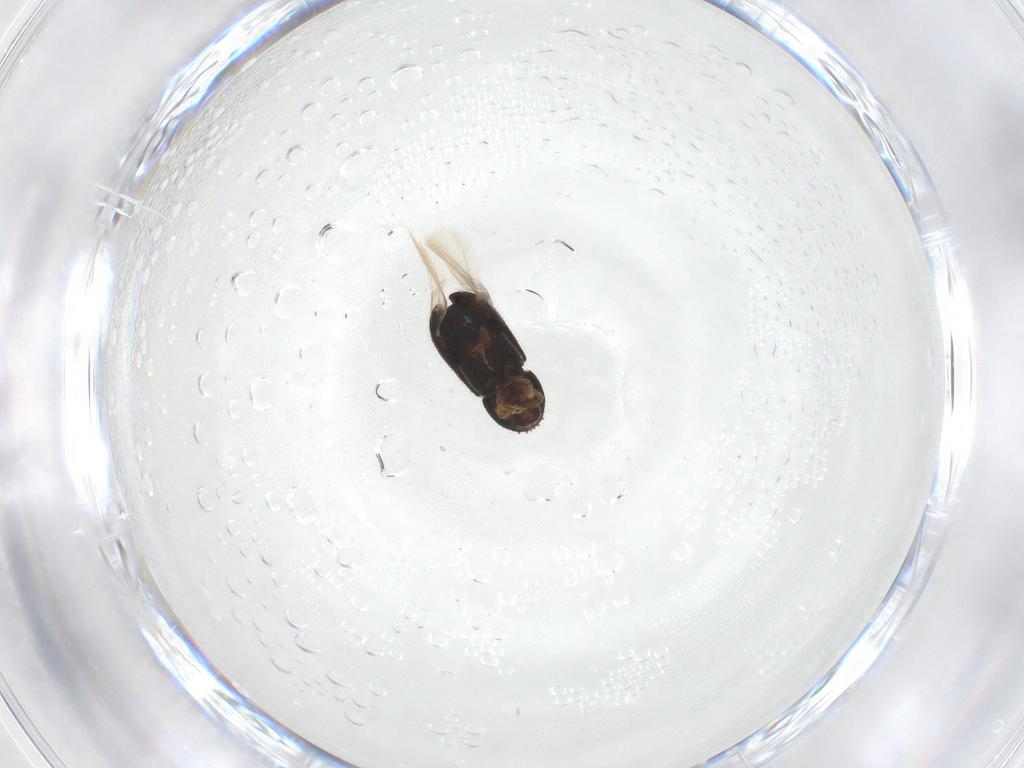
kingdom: Animalia
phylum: Arthropoda
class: Insecta
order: Coleoptera
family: Curculionidae
